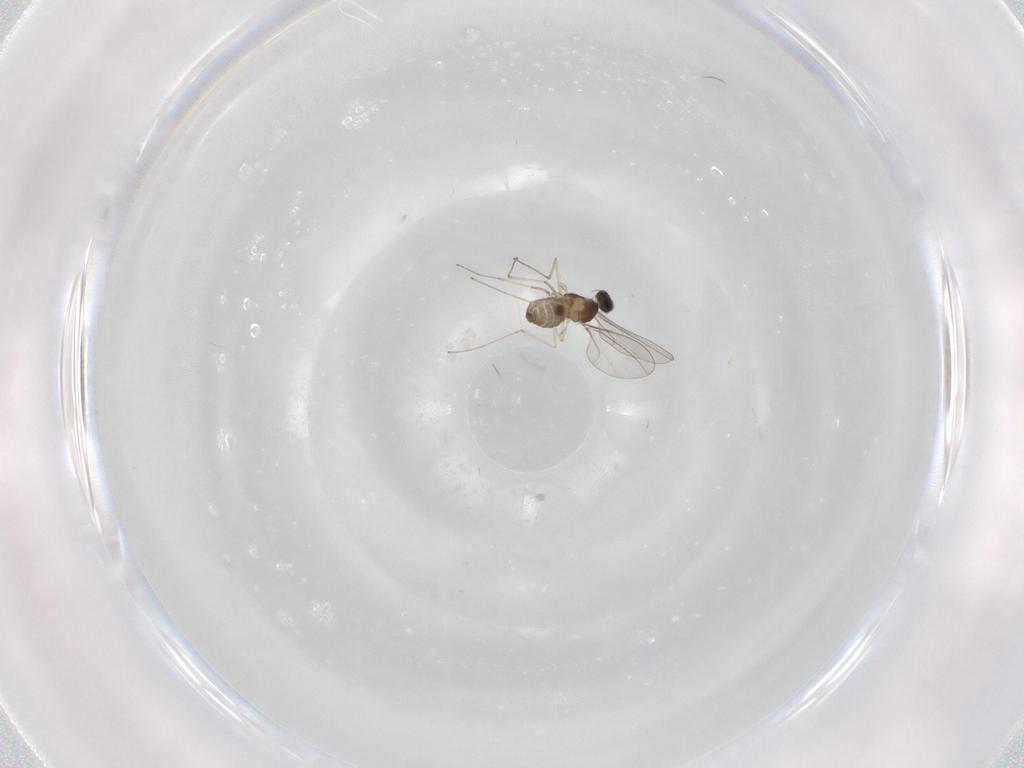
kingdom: Animalia
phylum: Arthropoda
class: Insecta
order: Diptera
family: Cecidomyiidae
